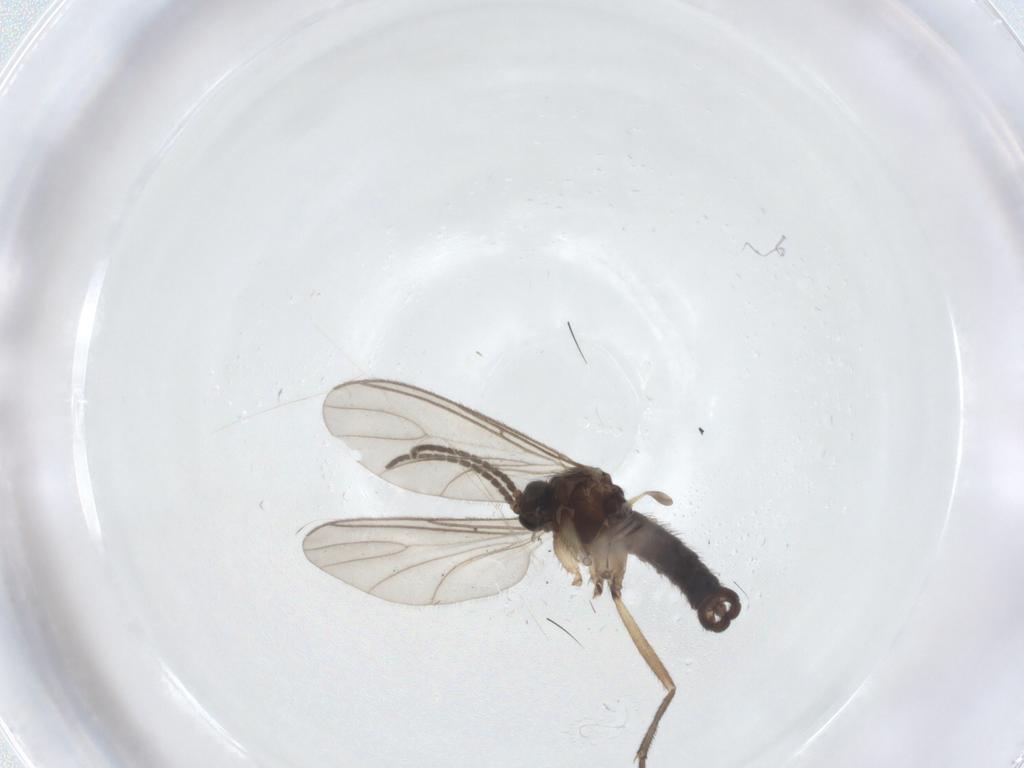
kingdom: Animalia
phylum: Arthropoda
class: Insecta
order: Diptera
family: Sciaridae
